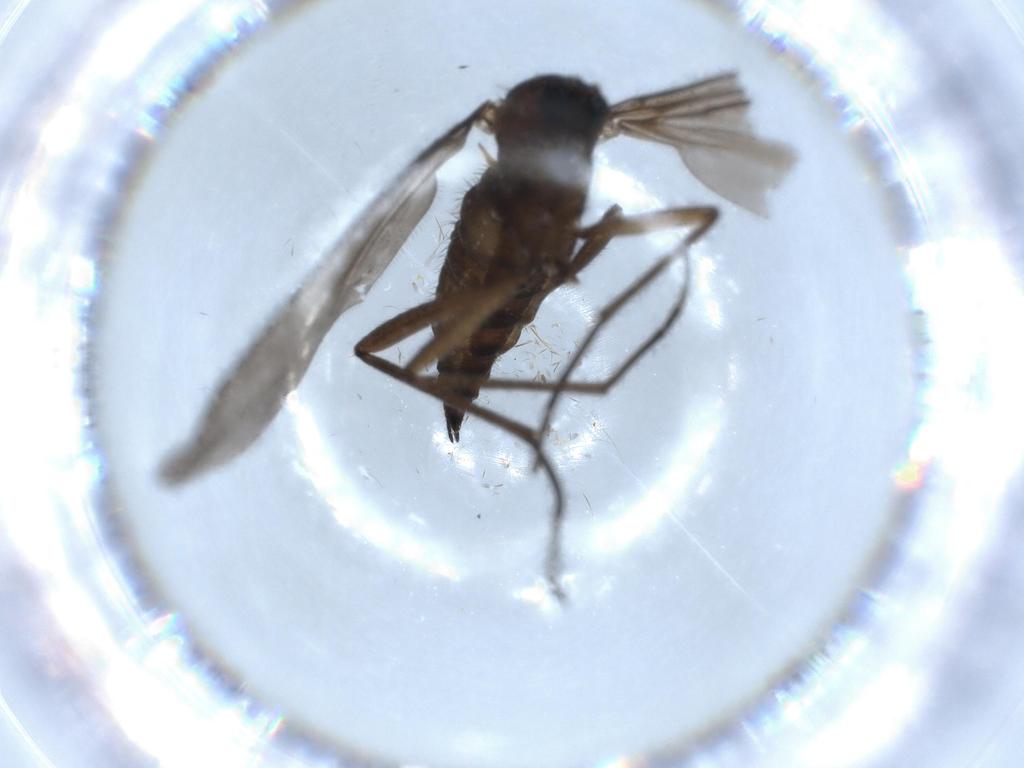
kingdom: Animalia
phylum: Arthropoda
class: Insecta
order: Diptera
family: Sciaridae
